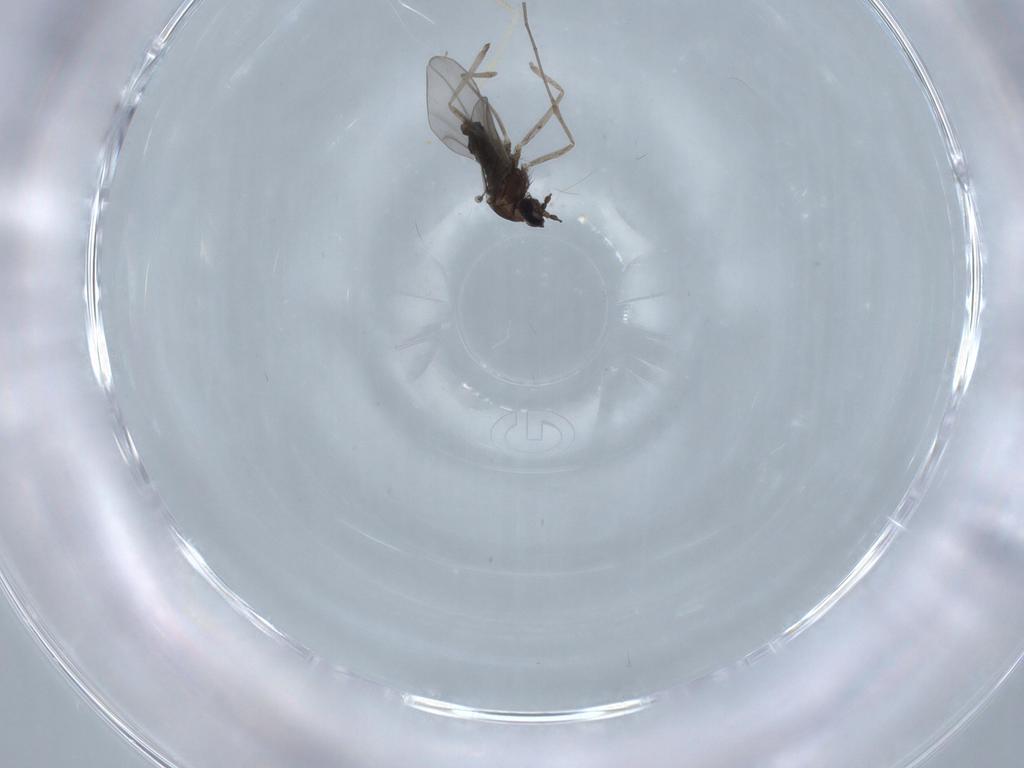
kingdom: Animalia
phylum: Arthropoda
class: Insecta
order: Diptera
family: Cecidomyiidae
